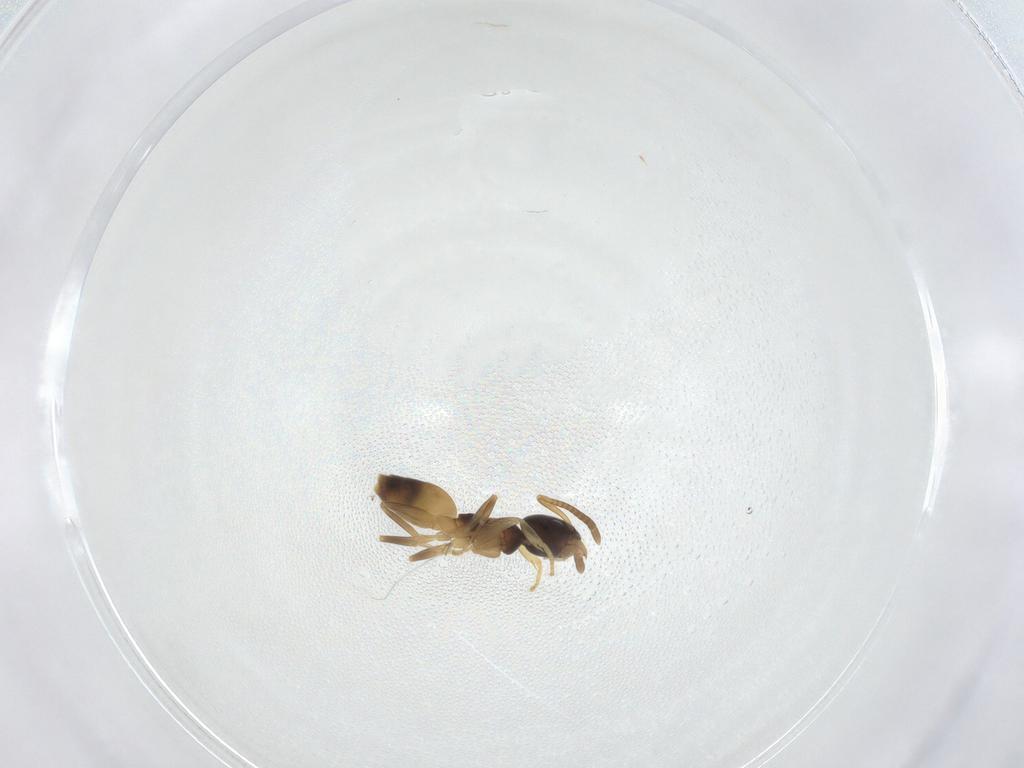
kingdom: Animalia
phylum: Arthropoda
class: Insecta
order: Hymenoptera
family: Formicidae
